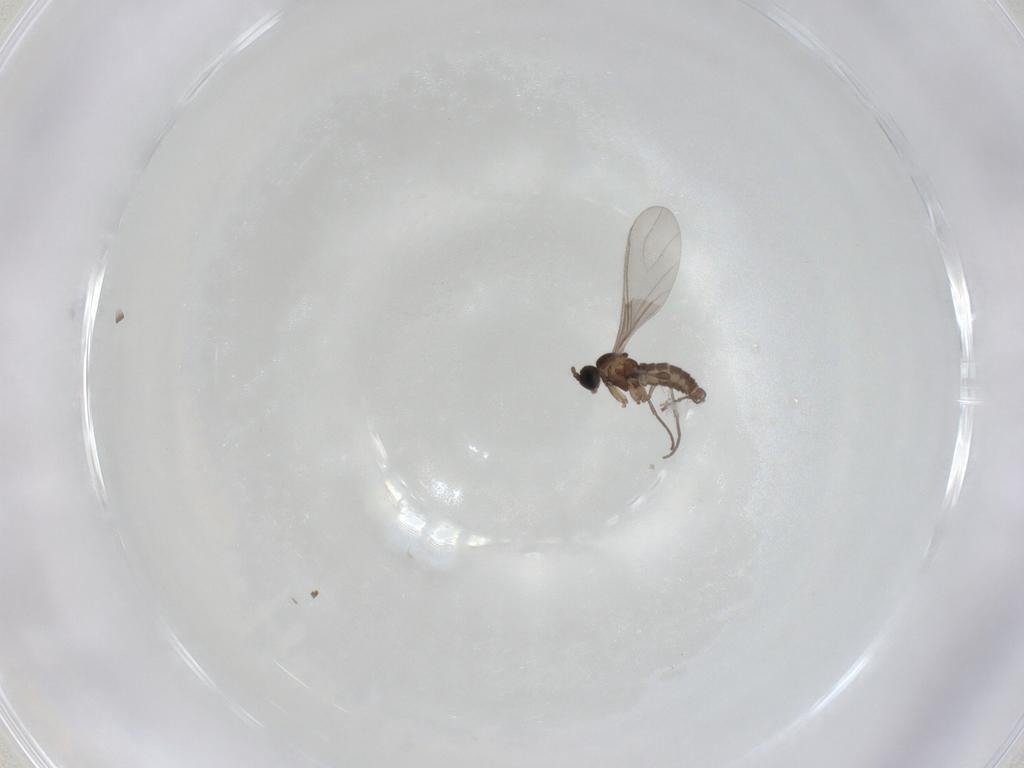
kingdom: Animalia
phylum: Arthropoda
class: Insecta
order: Diptera
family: Sciaridae
